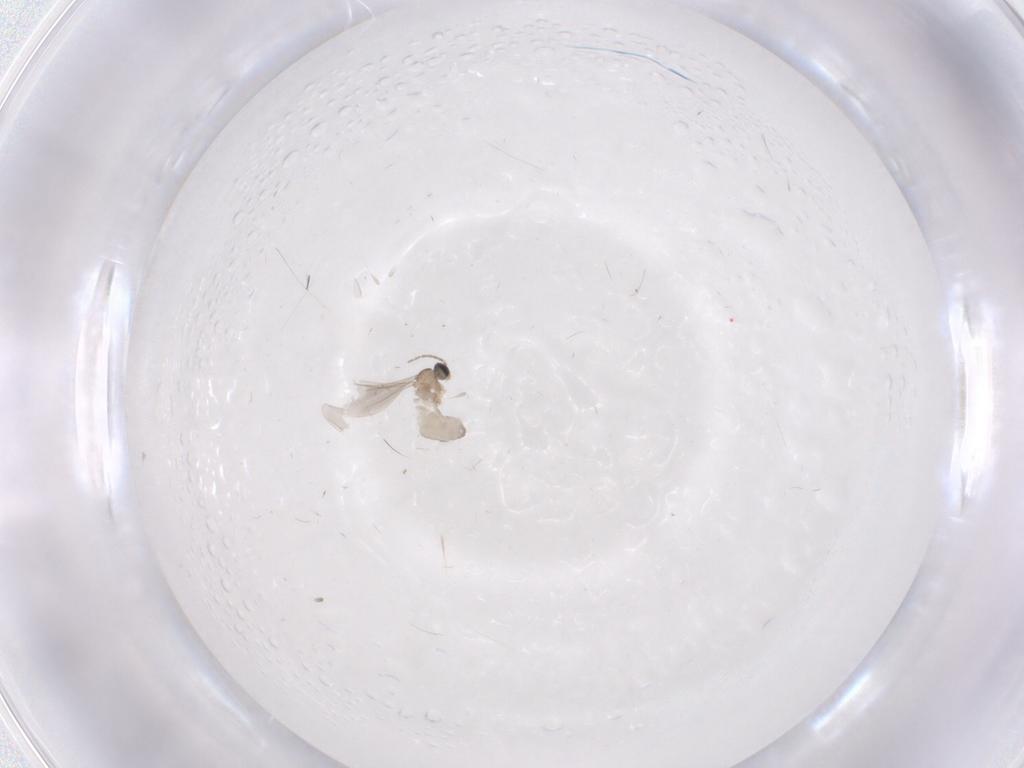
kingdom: Animalia
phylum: Arthropoda
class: Insecta
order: Diptera
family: Cecidomyiidae
